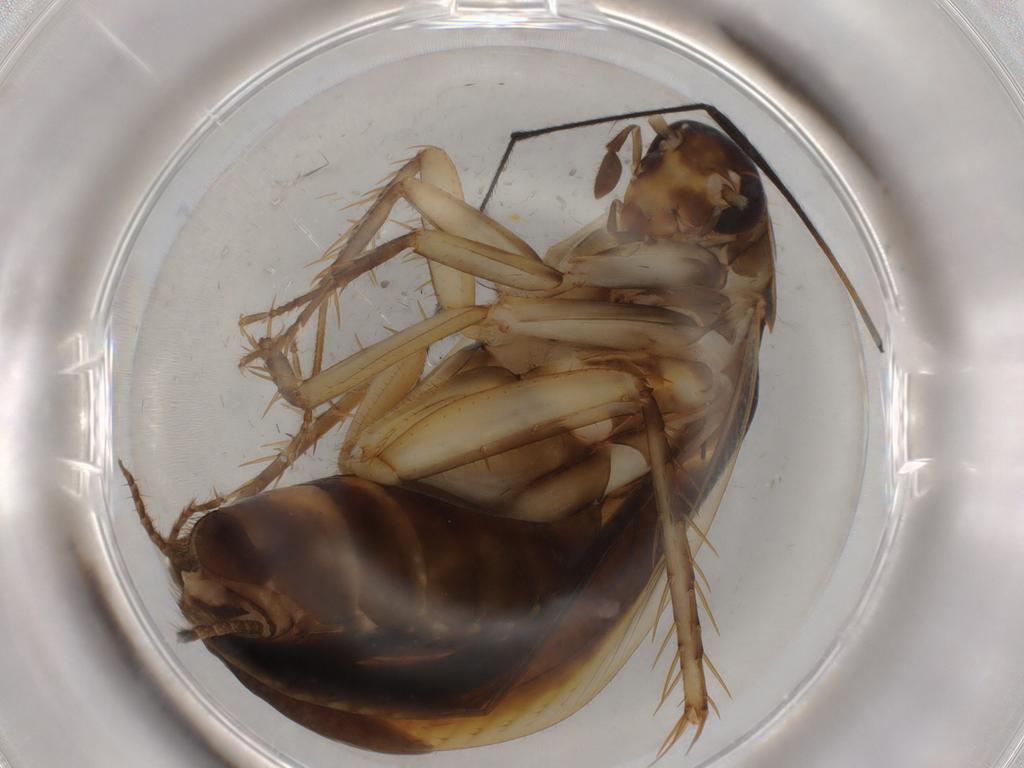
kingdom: Animalia
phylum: Arthropoda
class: Insecta
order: Blattodea
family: Ectobiidae
